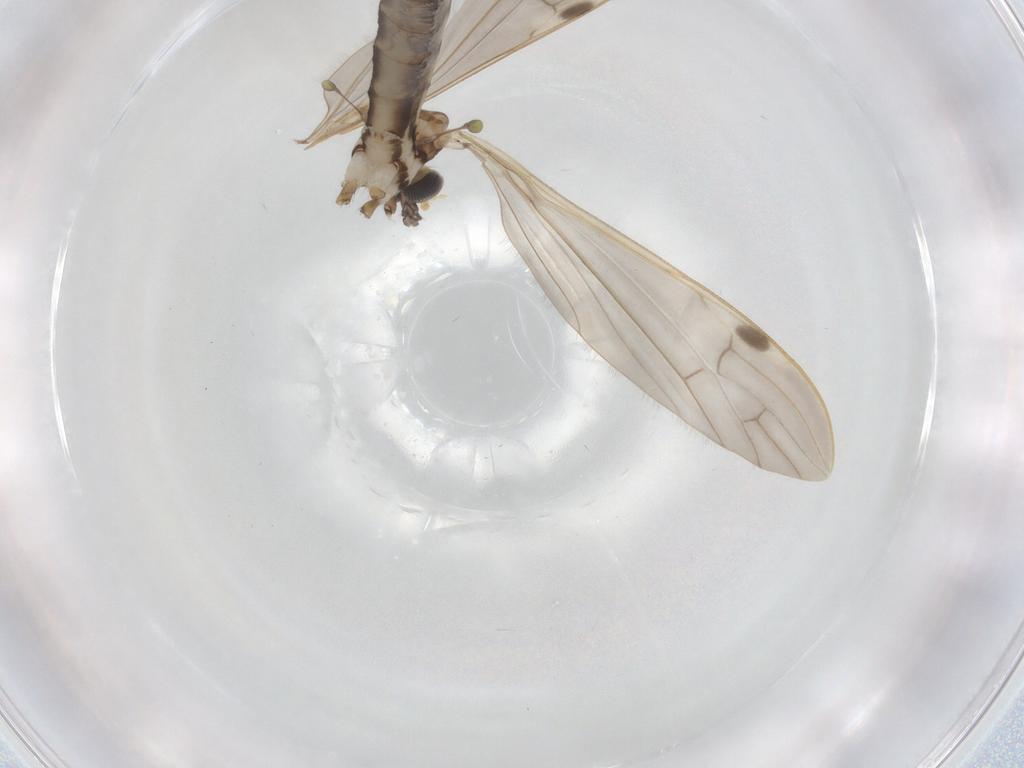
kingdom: Animalia
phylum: Arthropoda
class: Insecta
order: Diptera
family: Limoniidae
